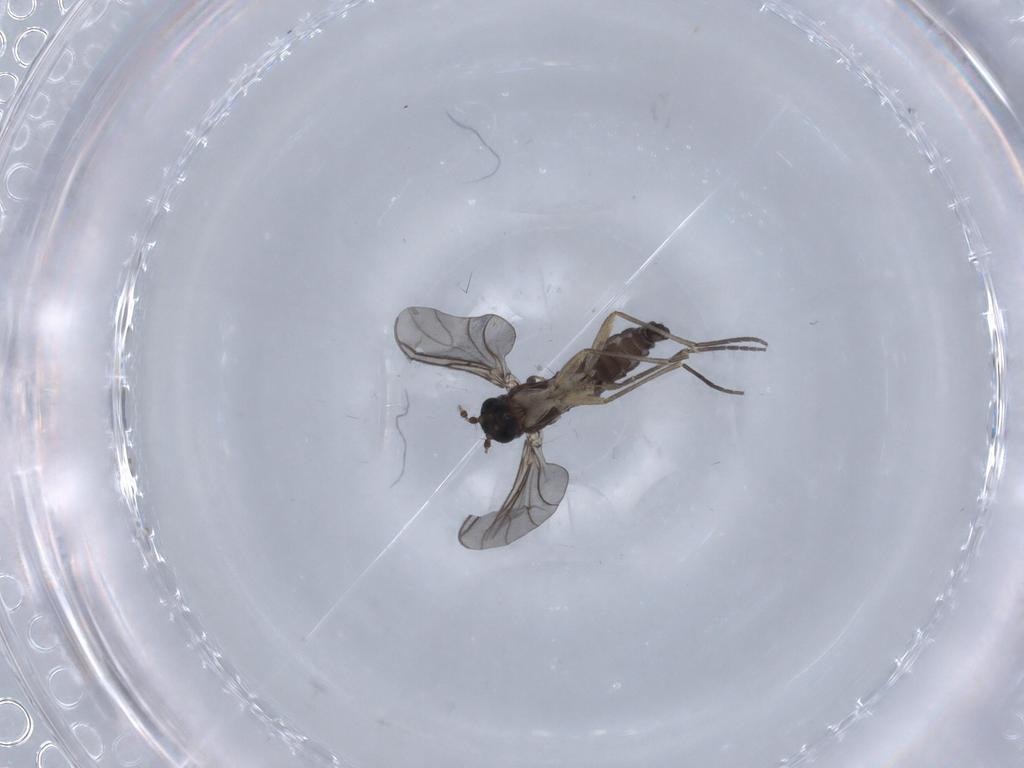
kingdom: Animalia
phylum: Arthropoda
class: Insecta
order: Diptera
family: Sciaridae
